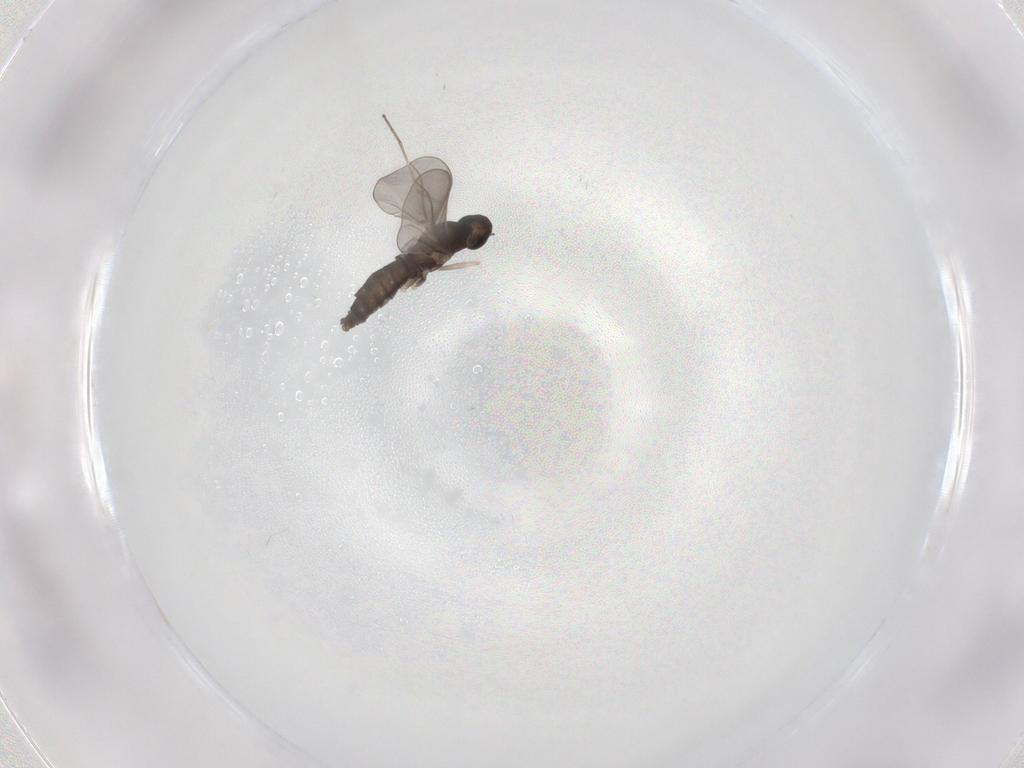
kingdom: Animalia
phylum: Arthropoda
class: Insecta
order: Diptera
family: Cecidomyiidae
